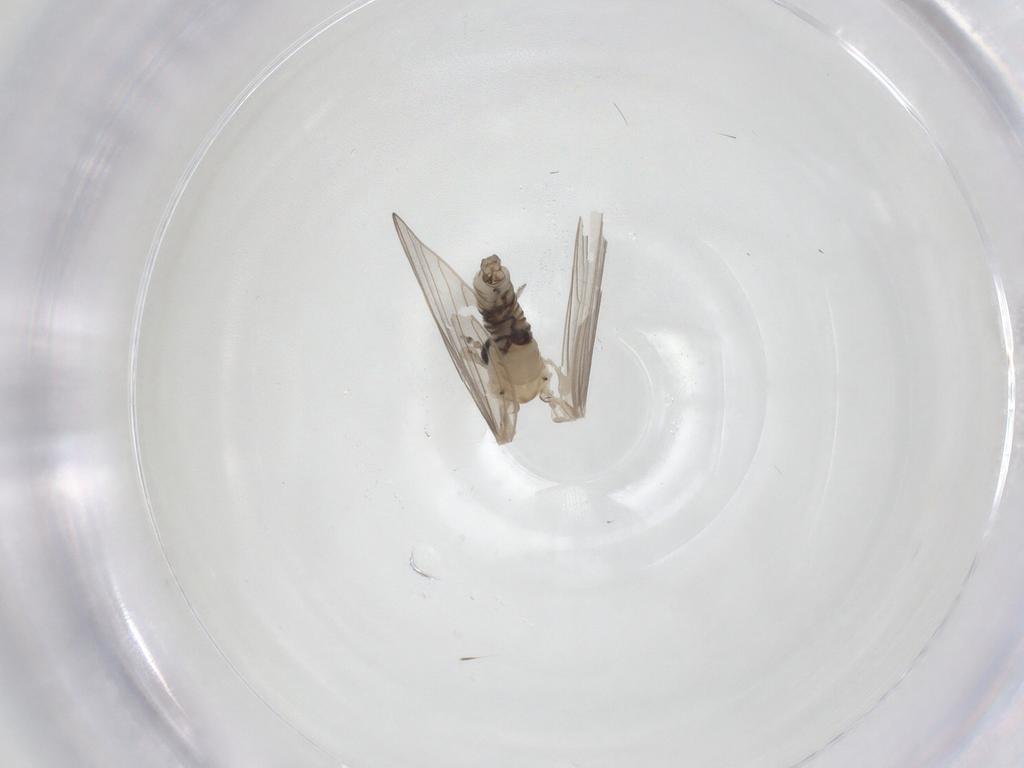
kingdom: Animalia
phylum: Arthropoda
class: Insecta
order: Diptera
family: Psychodidae
